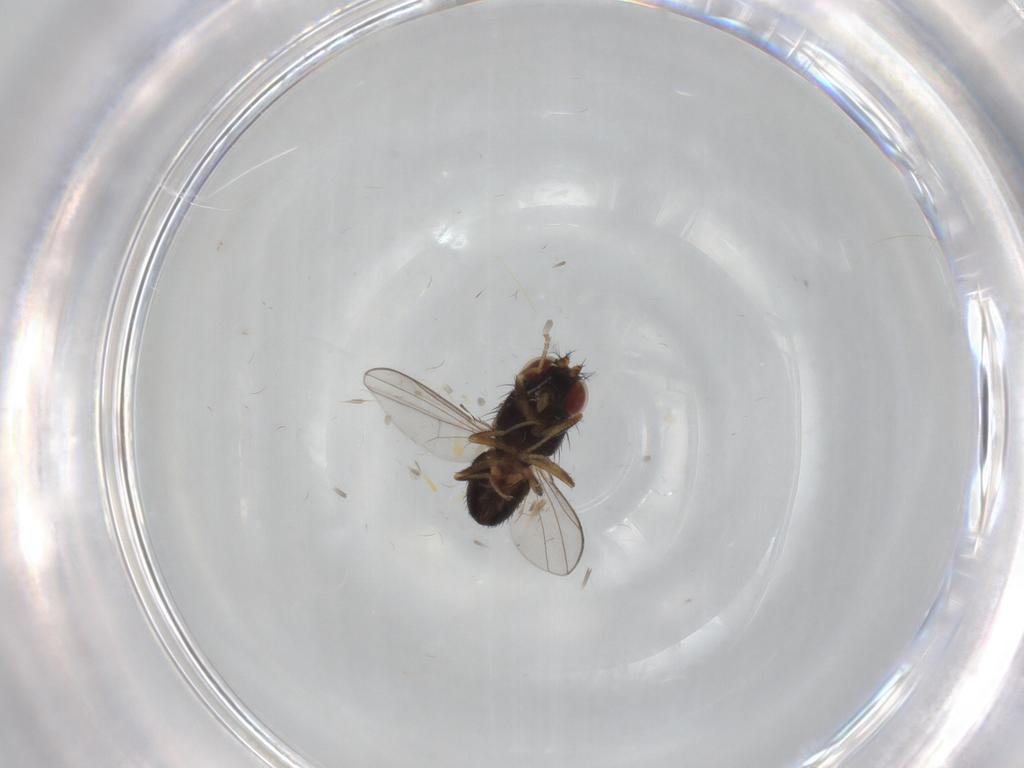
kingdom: Animalia
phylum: Arthropoda
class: Insecta
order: Diptera
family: Ephydridae
